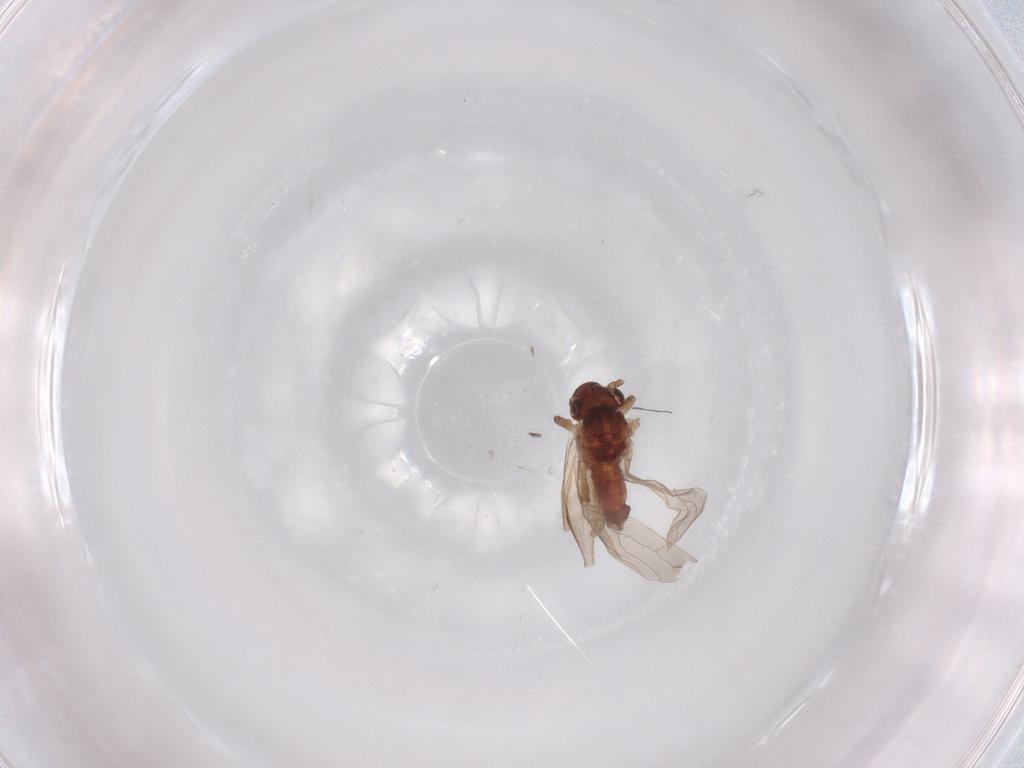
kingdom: Animalia
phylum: Arthropoda
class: Insecta
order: Psocodea
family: Caeciliusidae
